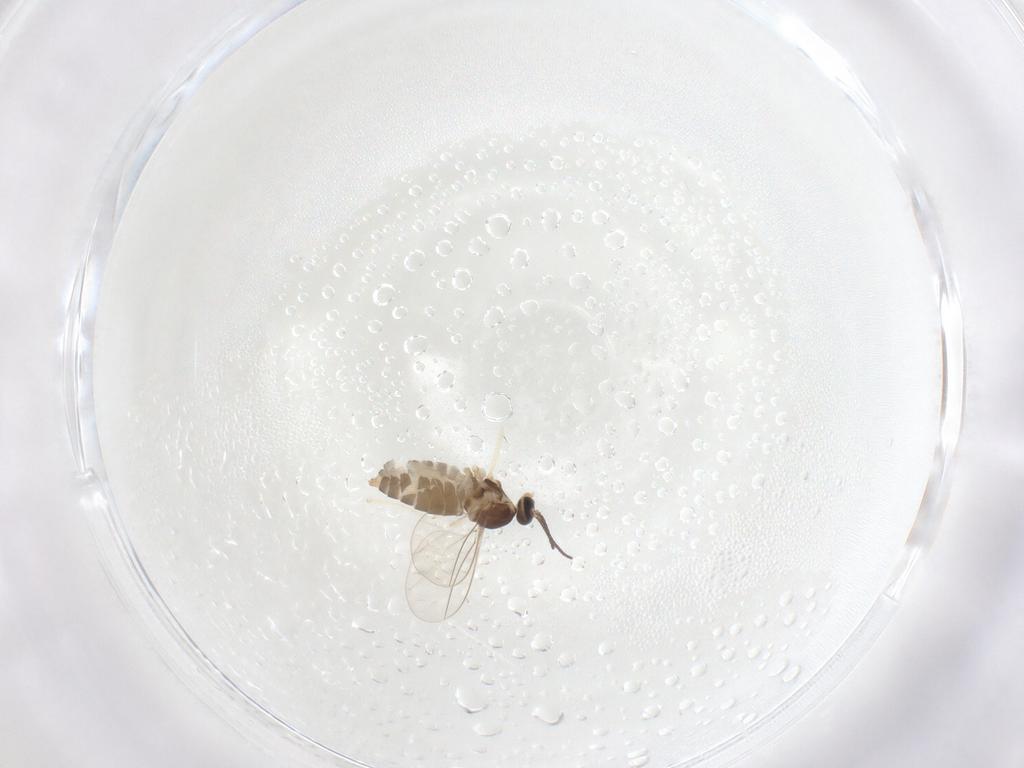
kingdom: Animalia
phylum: Arthropoda
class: Insecta
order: Diptera
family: Cecidomyiidae
